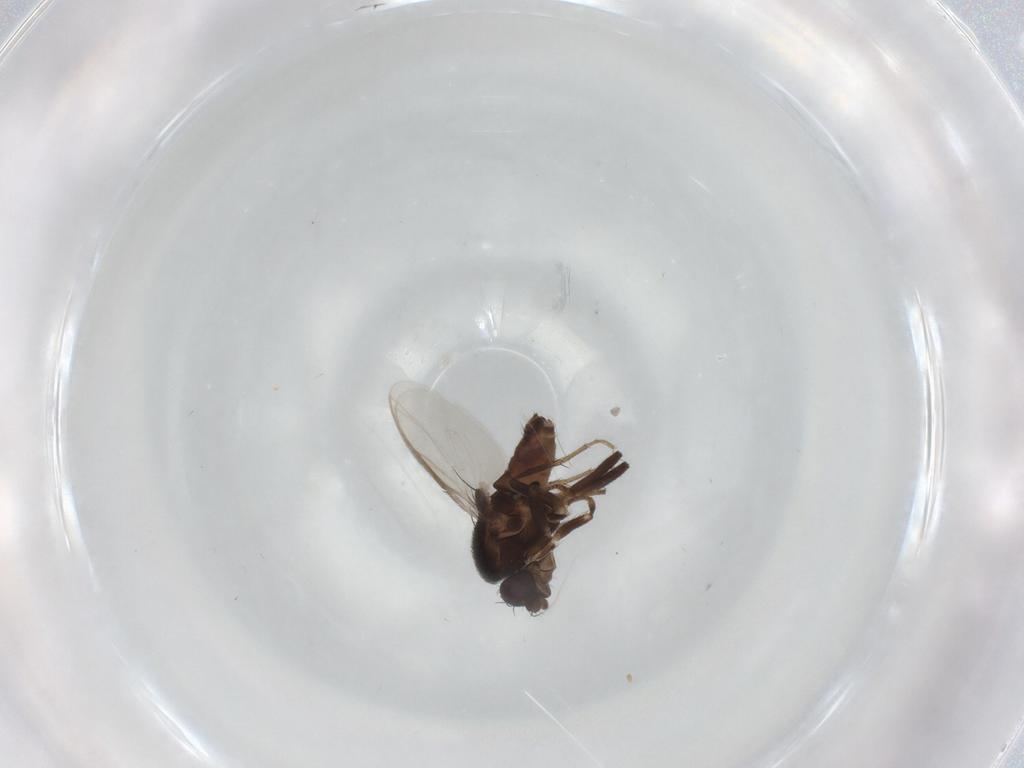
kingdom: Animalia
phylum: Arthropoda
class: Insecta
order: Diptera
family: Sphaeroceridae
